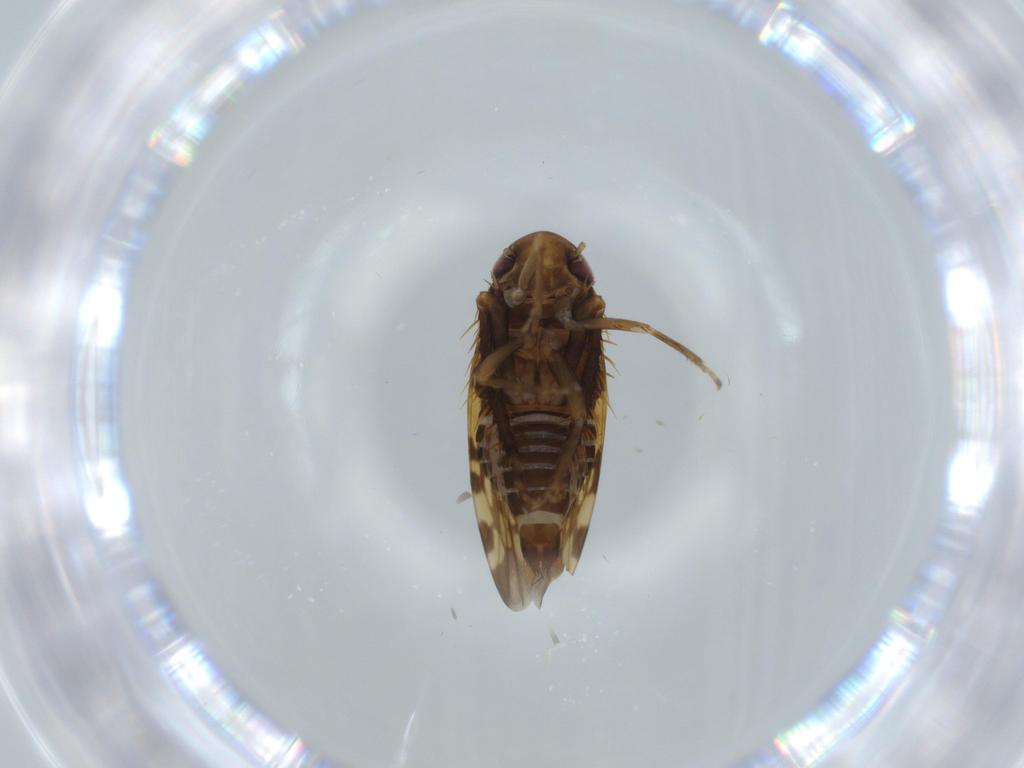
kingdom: Animalia
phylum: Arthropoda
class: Insecta
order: Hemiptera
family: Cicadellidae
